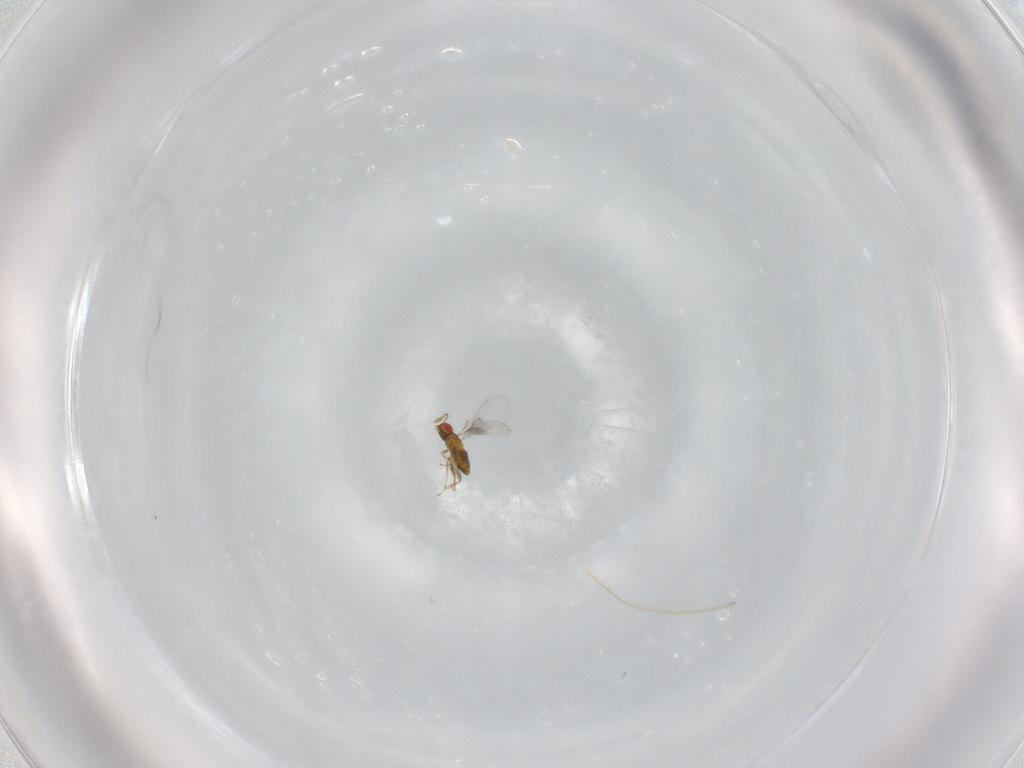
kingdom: Animalia
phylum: Arthropoda
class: Insecta
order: Hymenoptera
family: Trichogrammatidae
